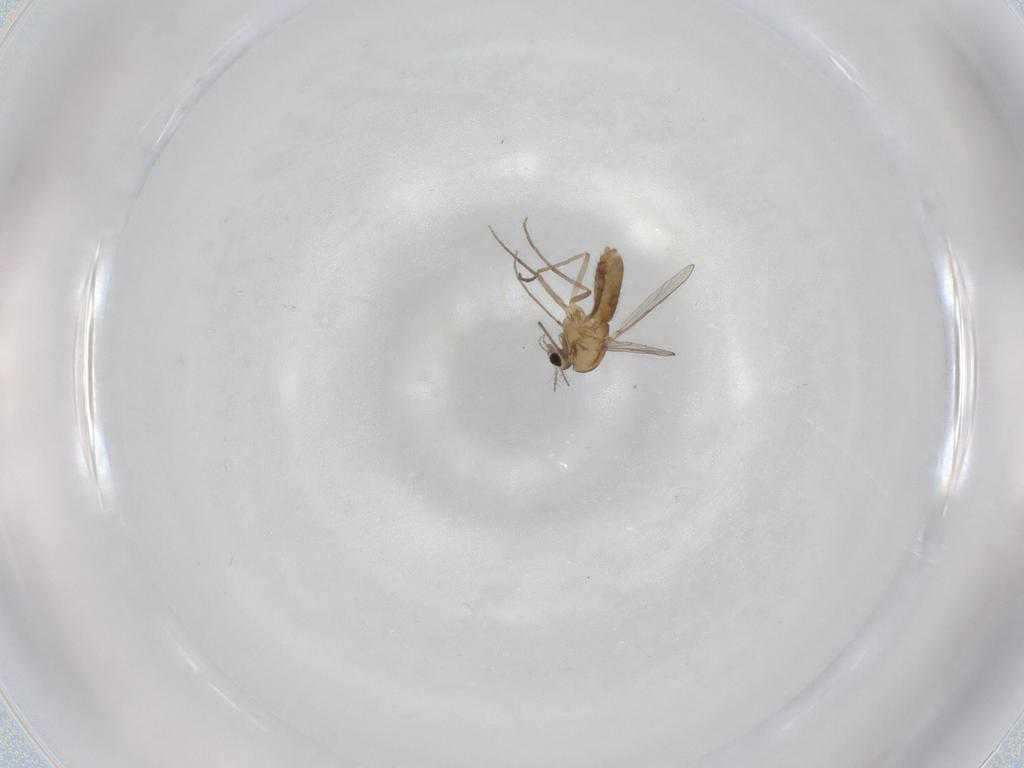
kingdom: Animalia
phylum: Arthropoda
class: Insecta
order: Diptera
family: Chironomidae
